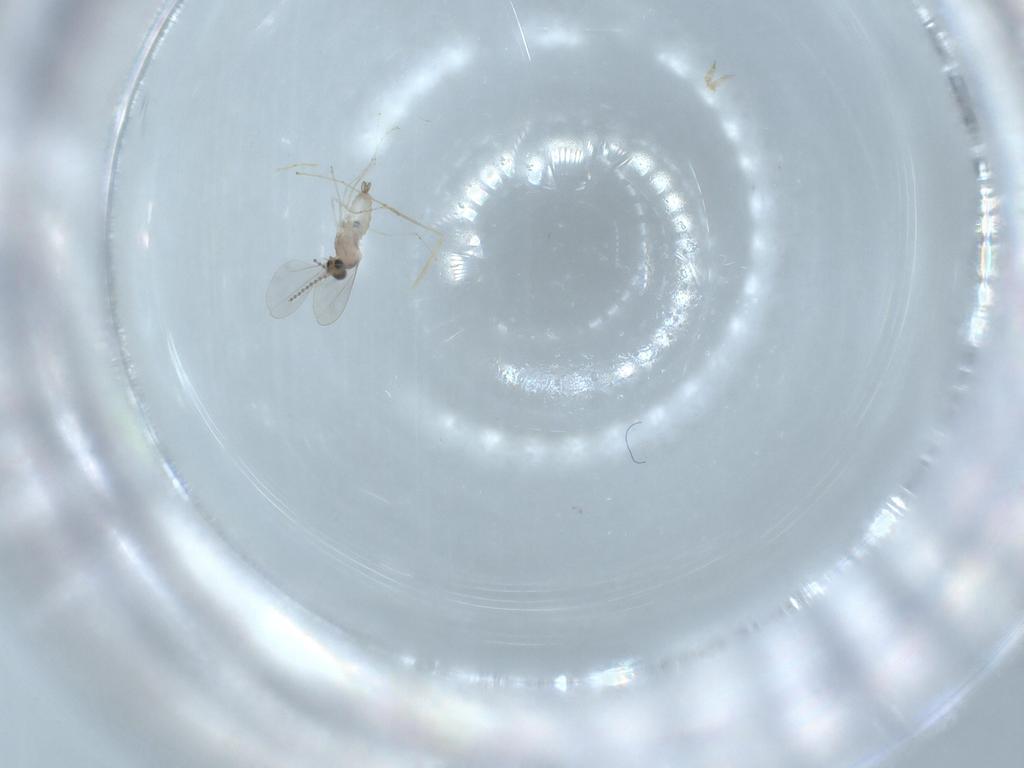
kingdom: Animalia
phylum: Arthropoda
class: Insecta
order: Diptera
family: Cecidomyiidae
